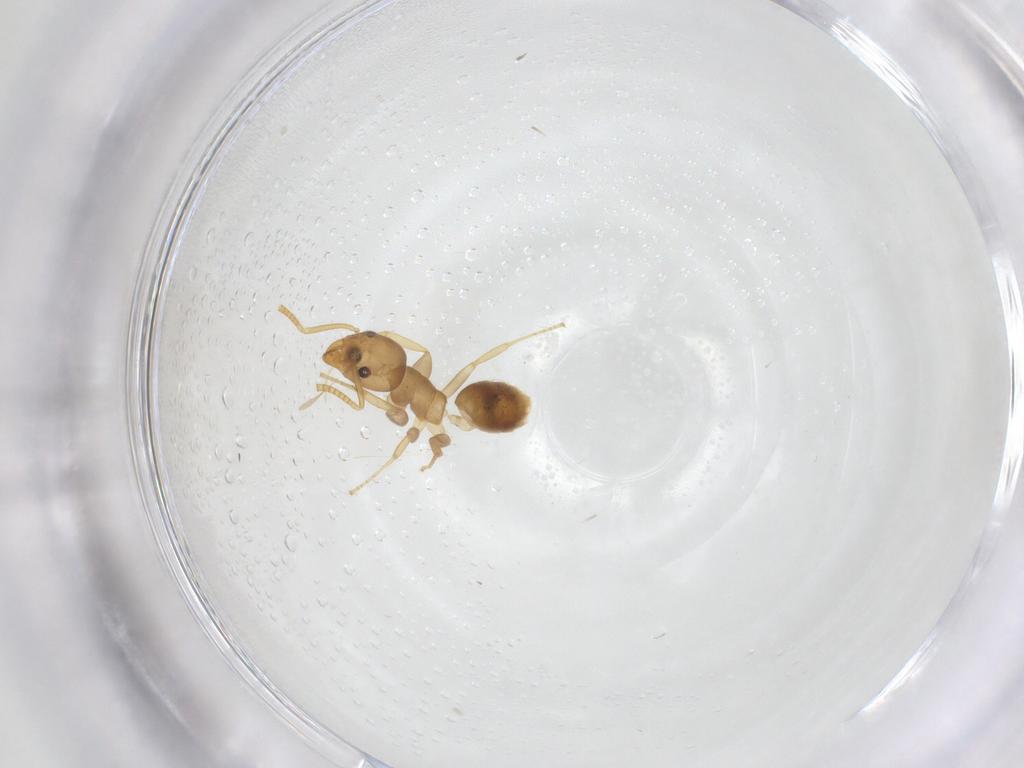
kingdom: Animalia
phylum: Arthropoda
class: Insecta
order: Hymenoptera
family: Formicidae
